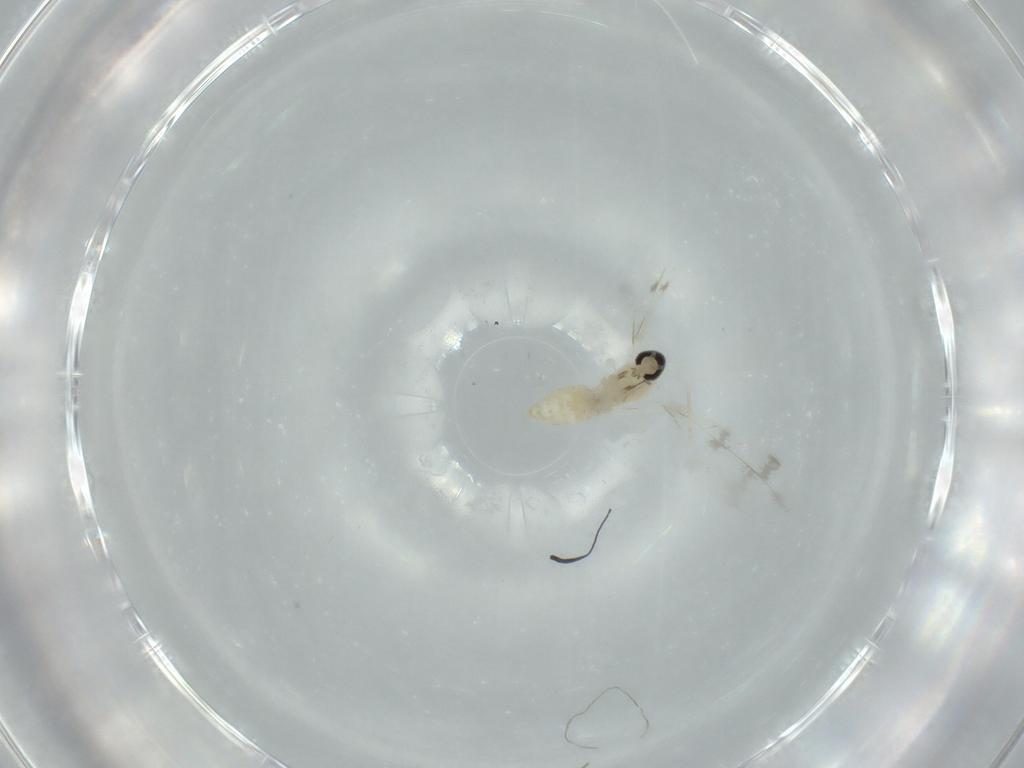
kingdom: Animalia
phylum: Arthropoda
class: Insecta
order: Diptera
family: Cecidomyiidae
